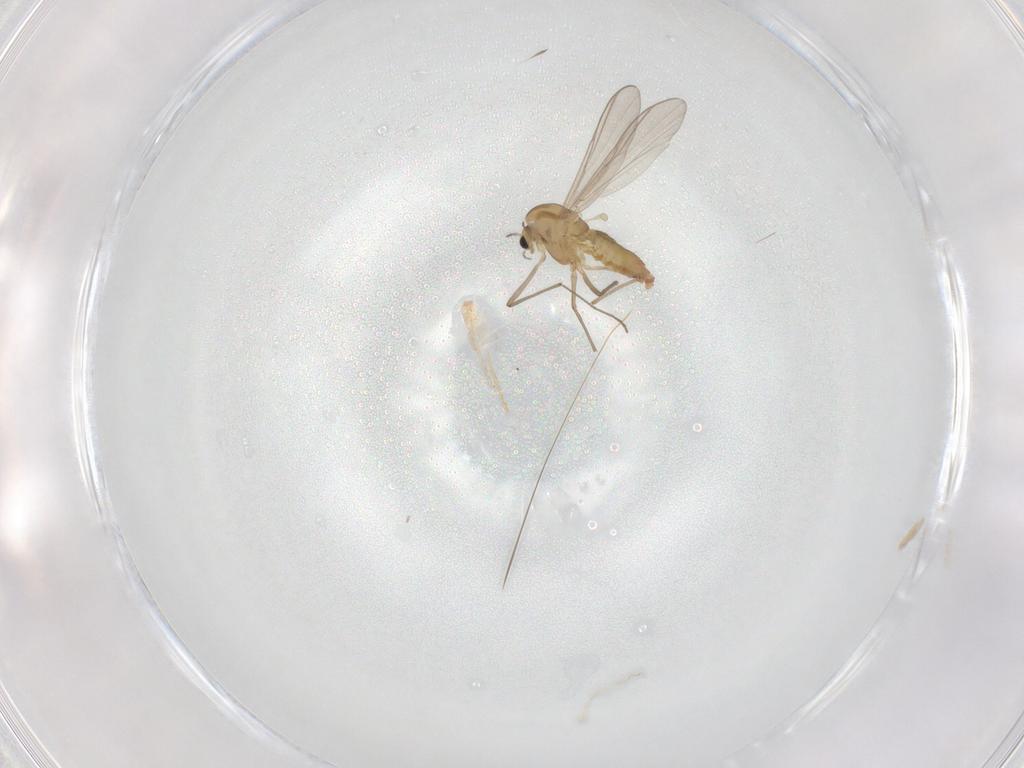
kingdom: Animalia
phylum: Arthropoda
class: Insecta
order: Diptera
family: Chironomidae
